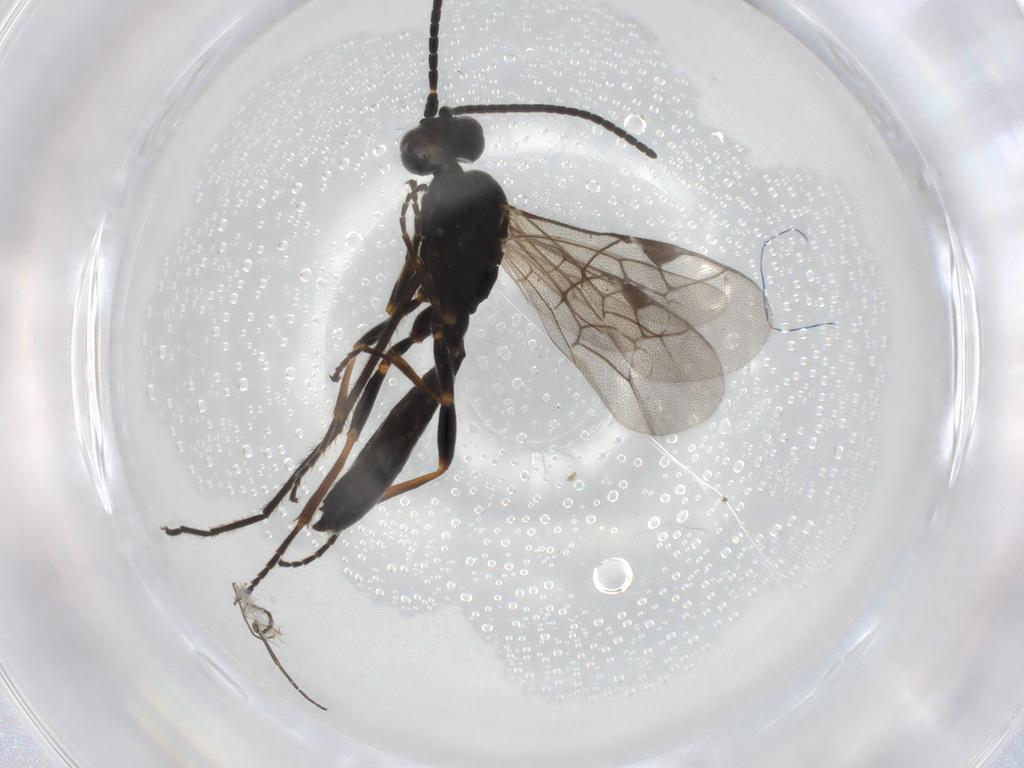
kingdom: Animalia
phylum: Arthropoda
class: Insecta
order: Hymenoptera
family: Ichneumonidae
